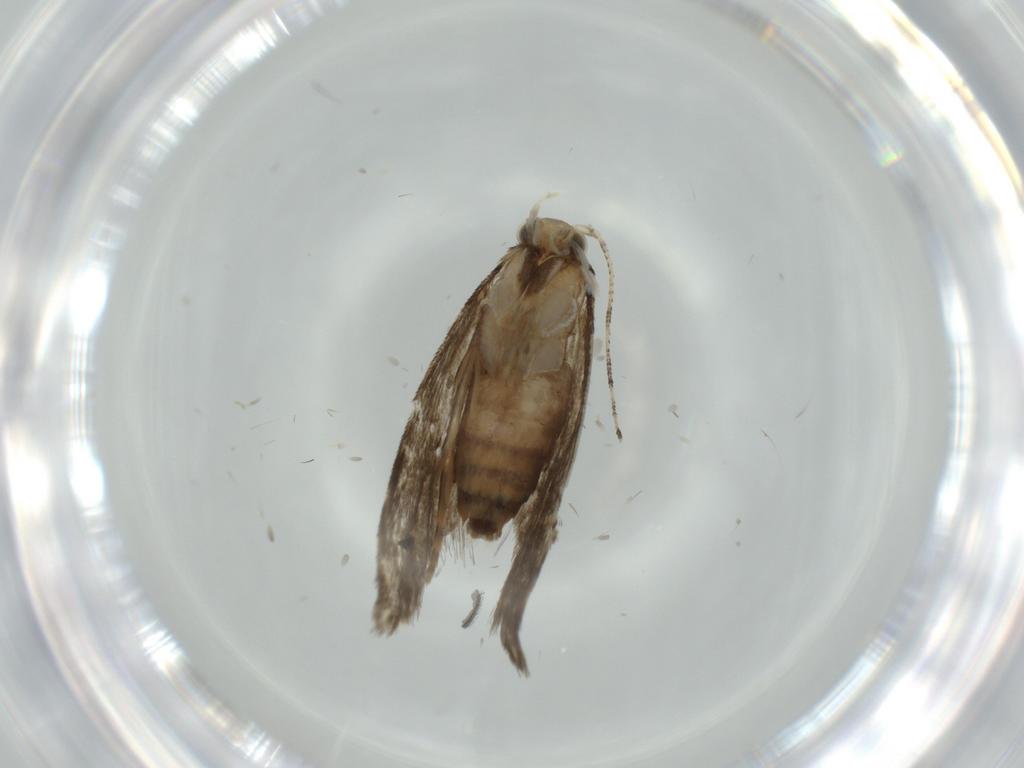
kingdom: Animalia
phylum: Arthropoda
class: Insecta
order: Lepidoptera
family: Tineidae
